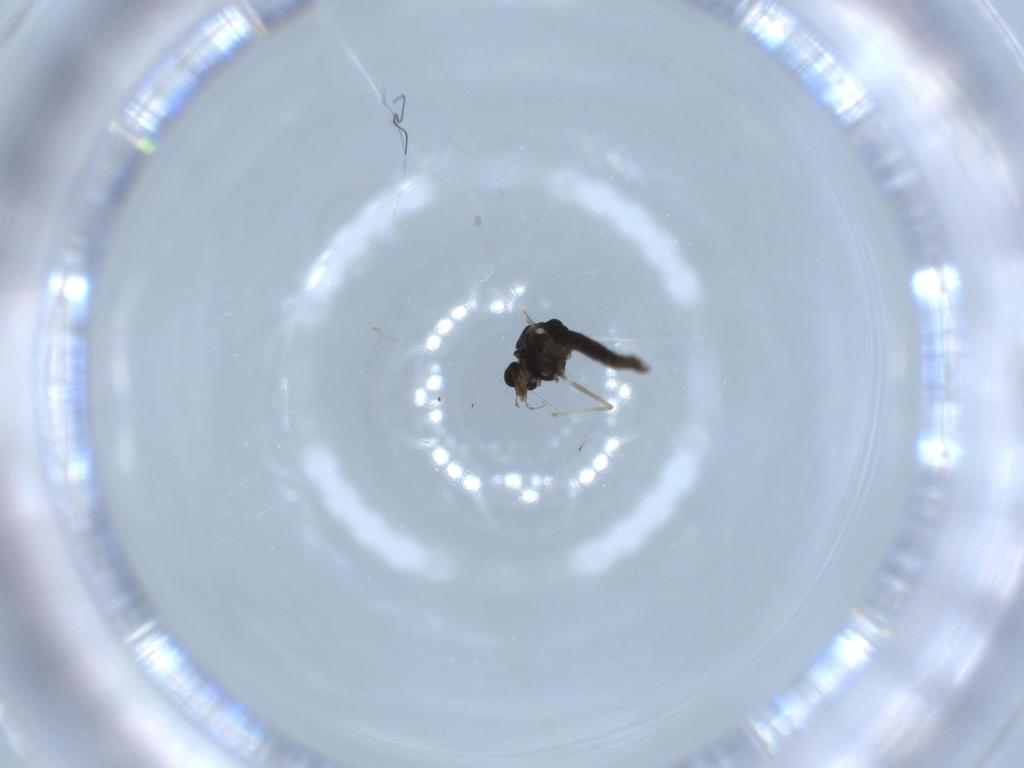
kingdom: Animalia
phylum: Arthropoda
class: Insecta
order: Diptera
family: Chironomidae
